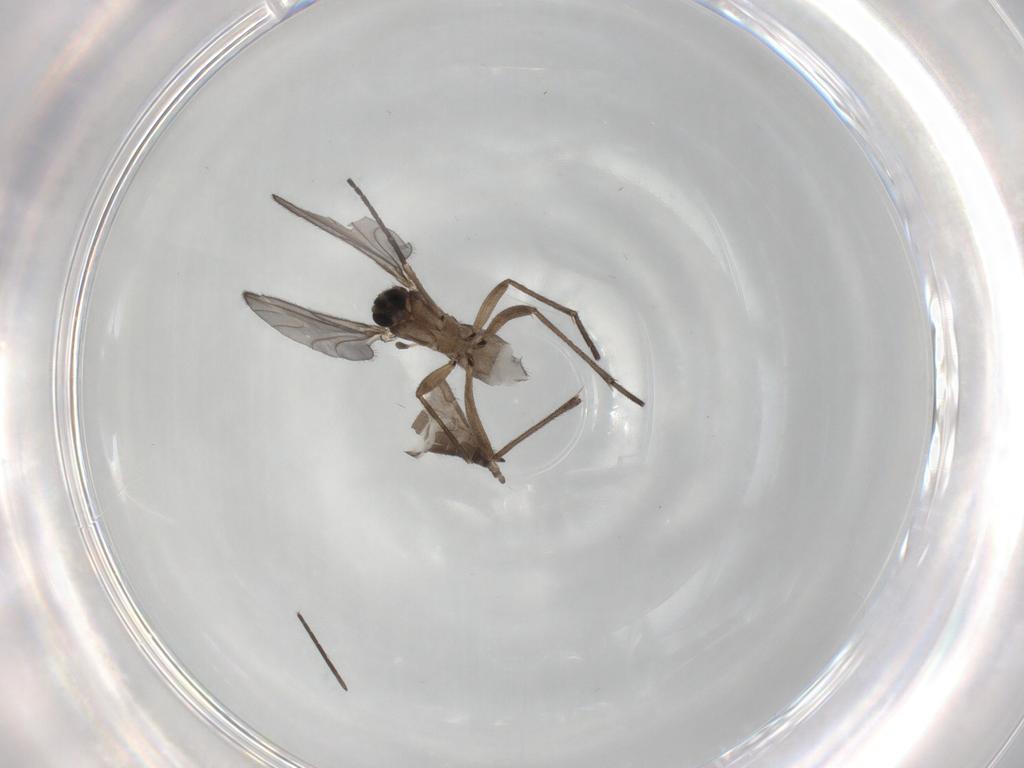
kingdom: Animalia
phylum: Arthropoda
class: Insecta
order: Diptera
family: Sciaridae
